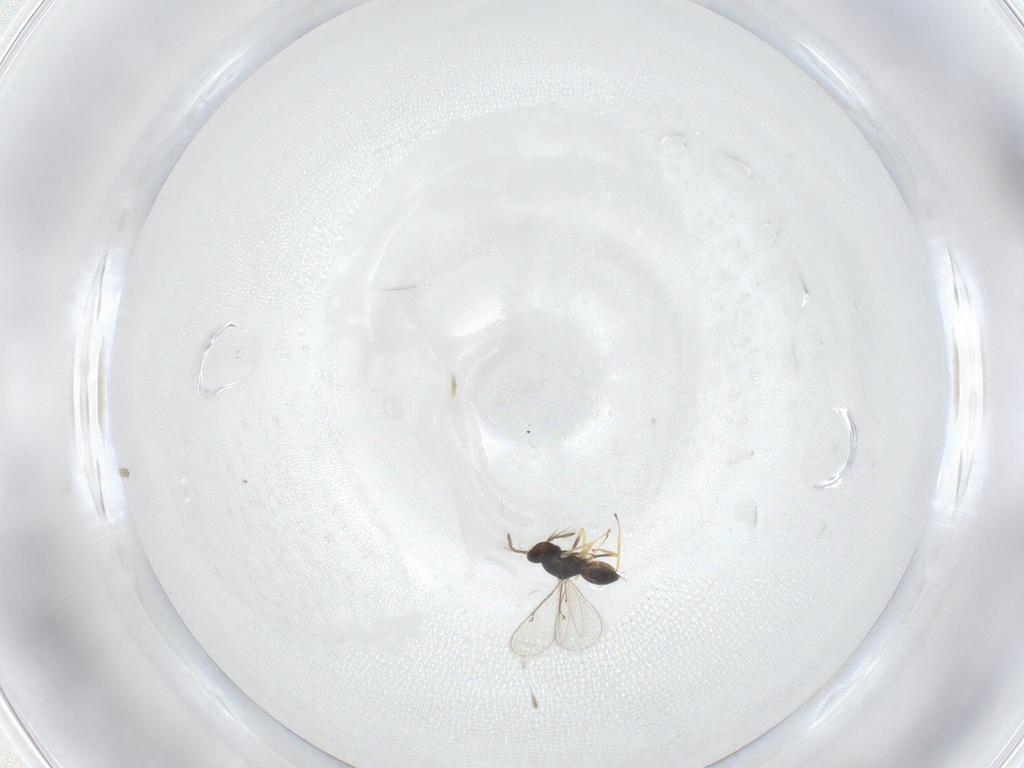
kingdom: Animalia
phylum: Arthropoda
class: Insecta
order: Hymenoptera
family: Eulophidae
